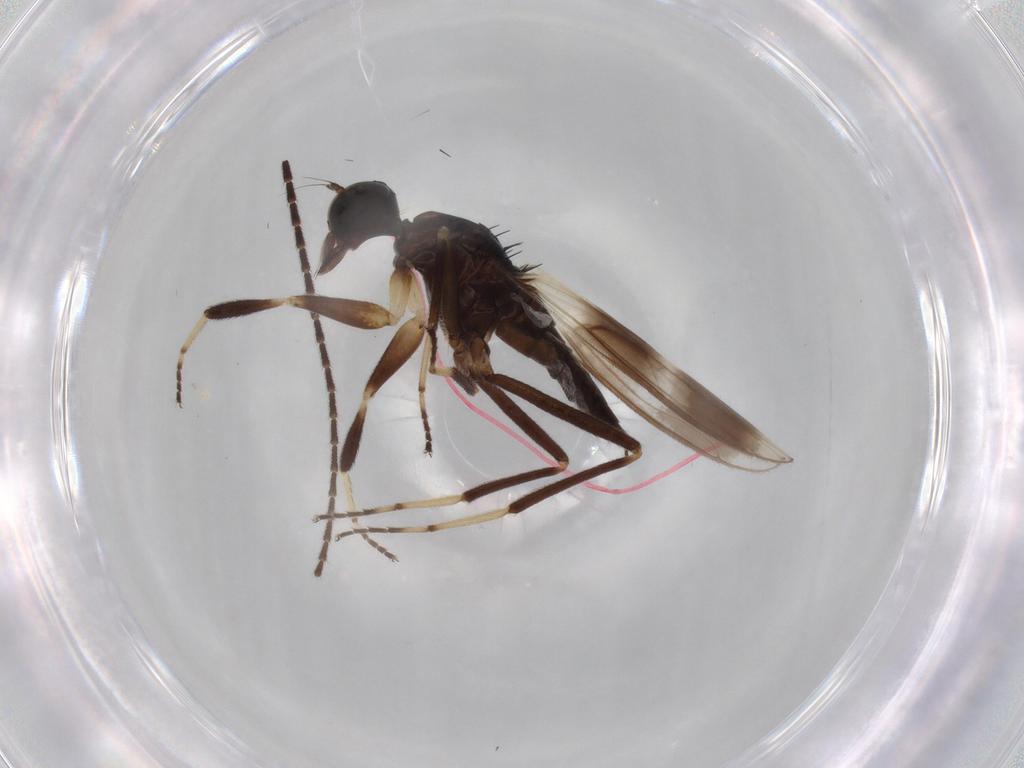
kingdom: Animalia
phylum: Arthropoda
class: Insecta
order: Diptera
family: Hybotidae
